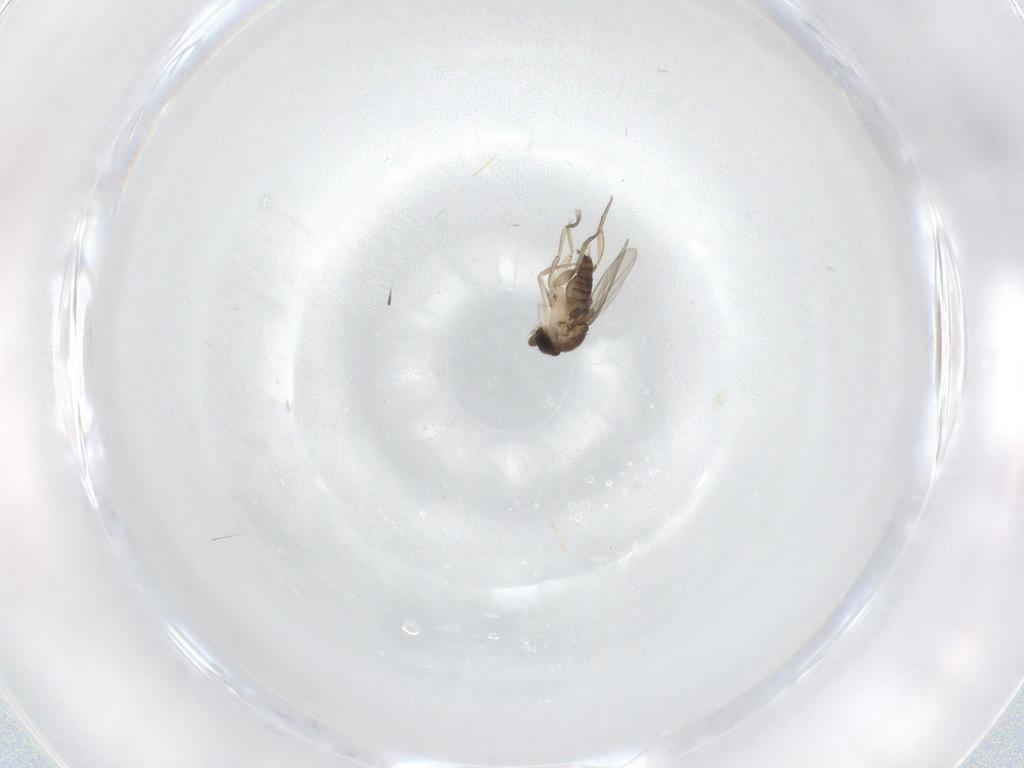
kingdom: Animalia
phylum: Arthropoda
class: Insecta
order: Diptera
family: Phoridae
